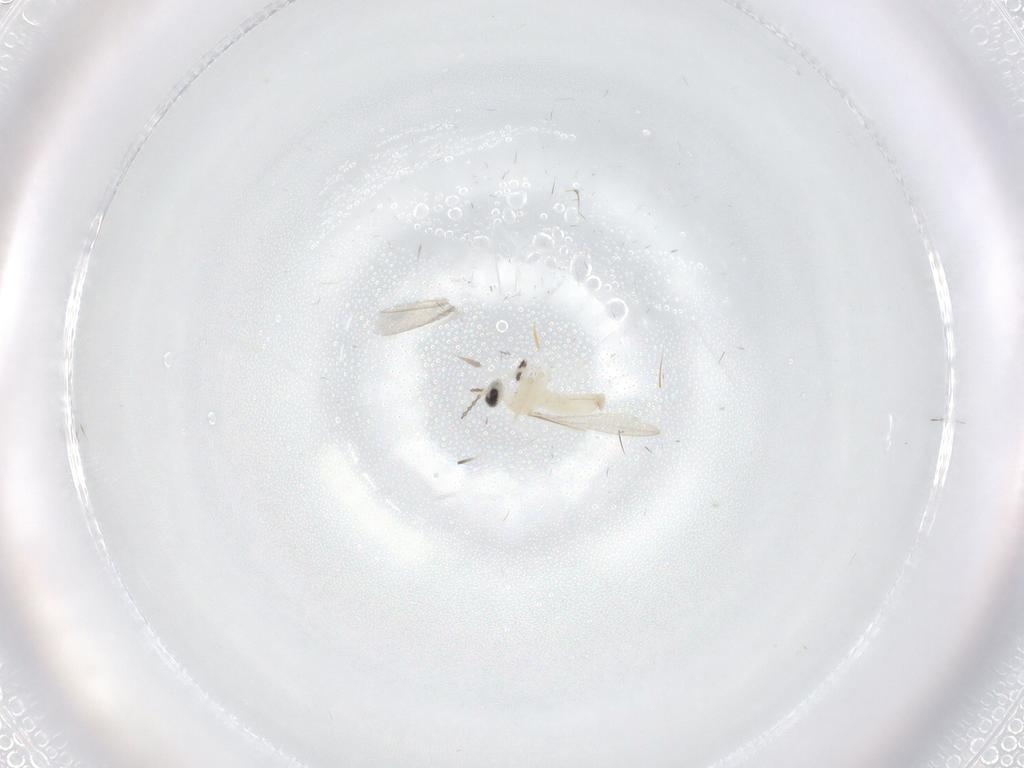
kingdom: Animalia
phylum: Arthropoda
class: Insecta
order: Diptera
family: Cecidomyiidae
